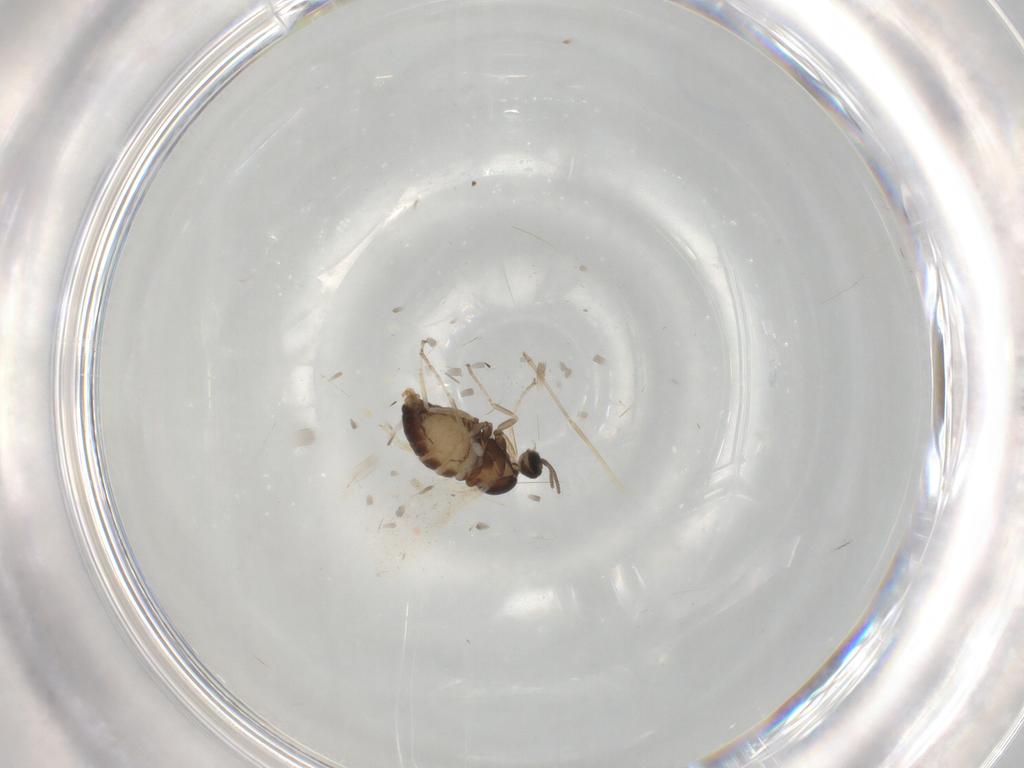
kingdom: Animalia
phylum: Arthropoda
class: Insecta
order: Diptera
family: Cecidomyiidae
